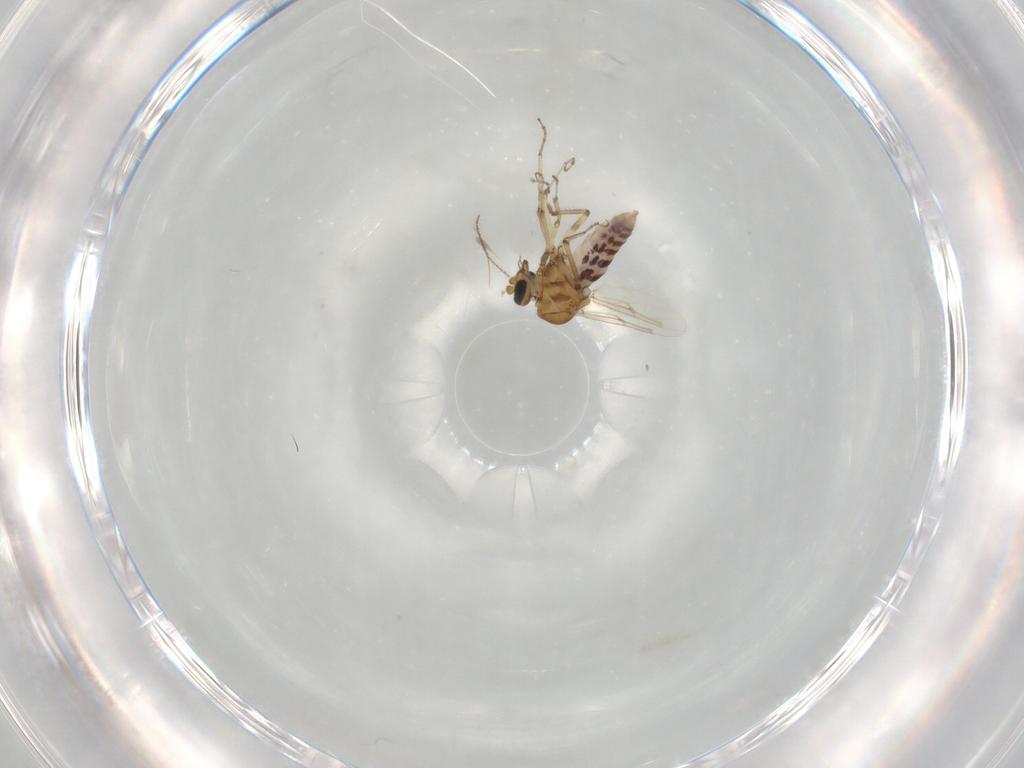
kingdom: Animalia
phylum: Arthropoda
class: Insecta
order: Diptera
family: Ceratopogonidae
